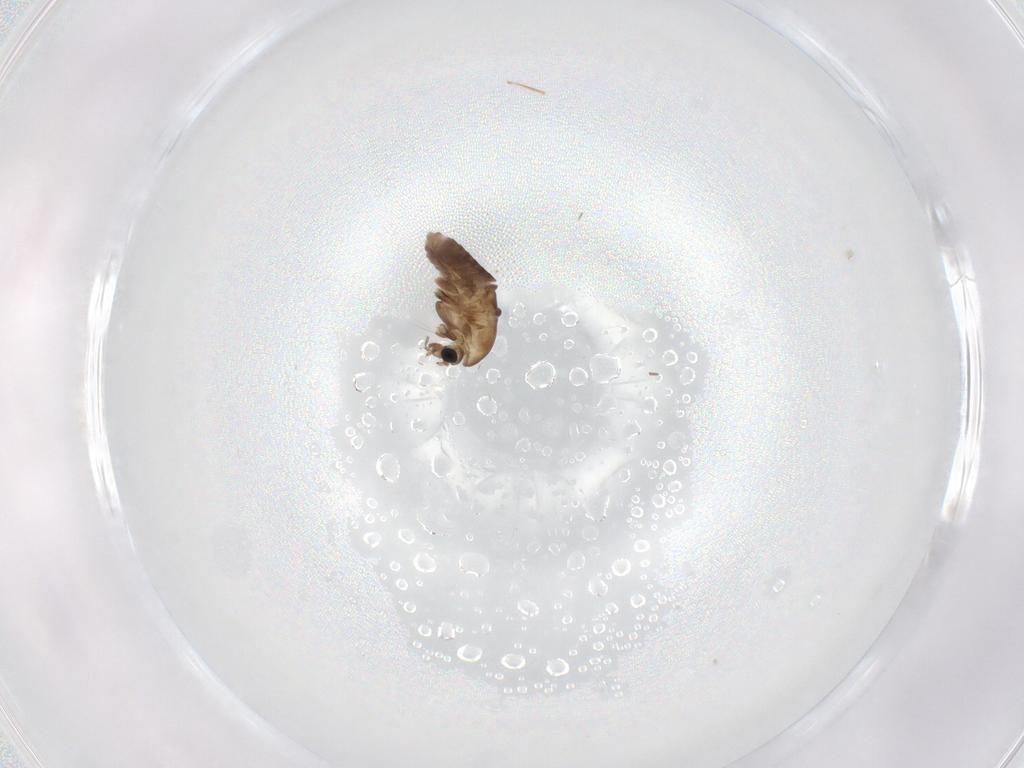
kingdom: Animalia
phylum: Arthropoda
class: Insecta
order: Diptera
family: Chironomidae
